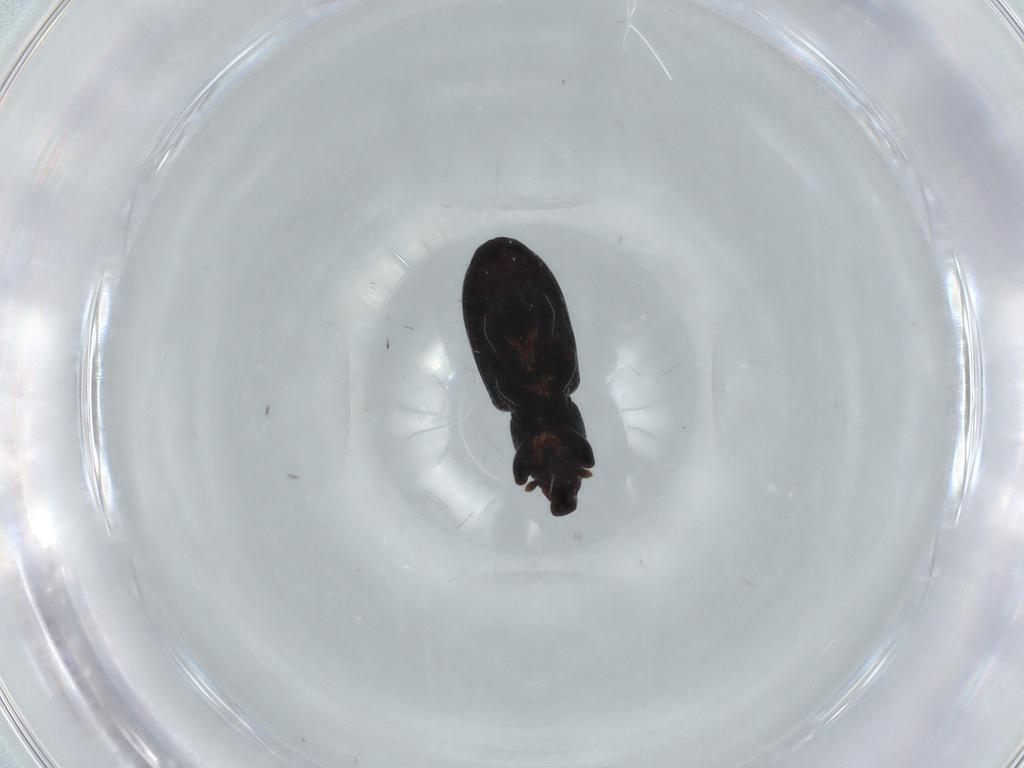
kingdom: Animalia
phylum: Arthropoda
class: Insecta
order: Coleoptera
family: Curculionidae
